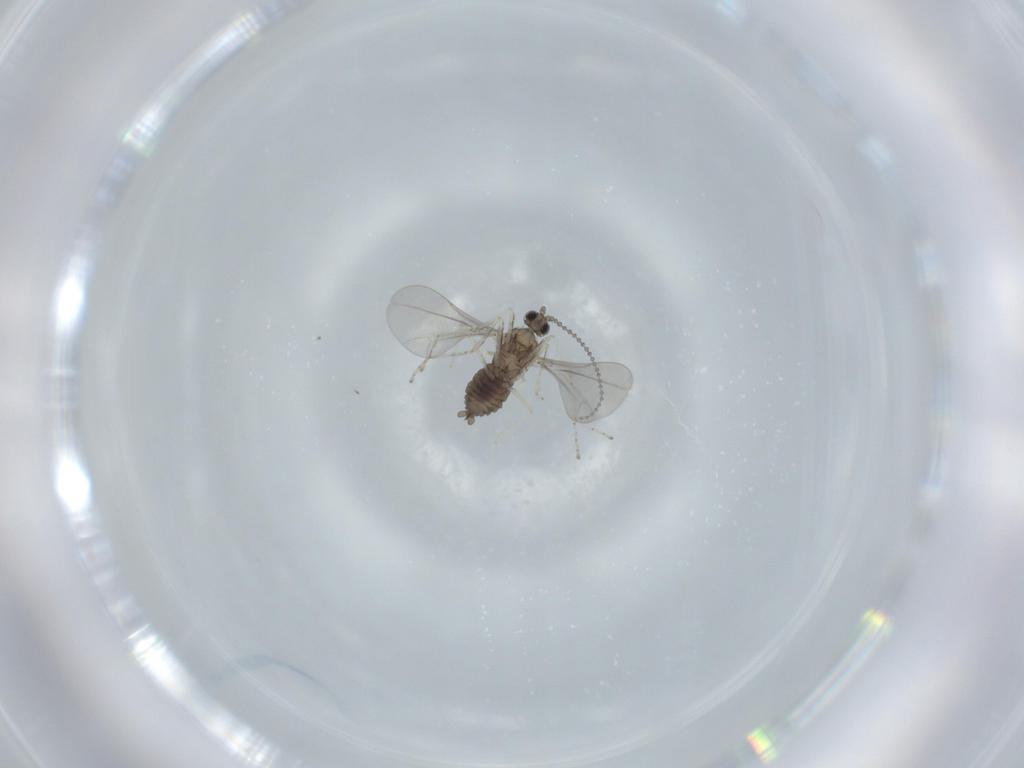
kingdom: Animalia
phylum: Arthropoda
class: Insecta
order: Diptera
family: Cecidomyiidae
